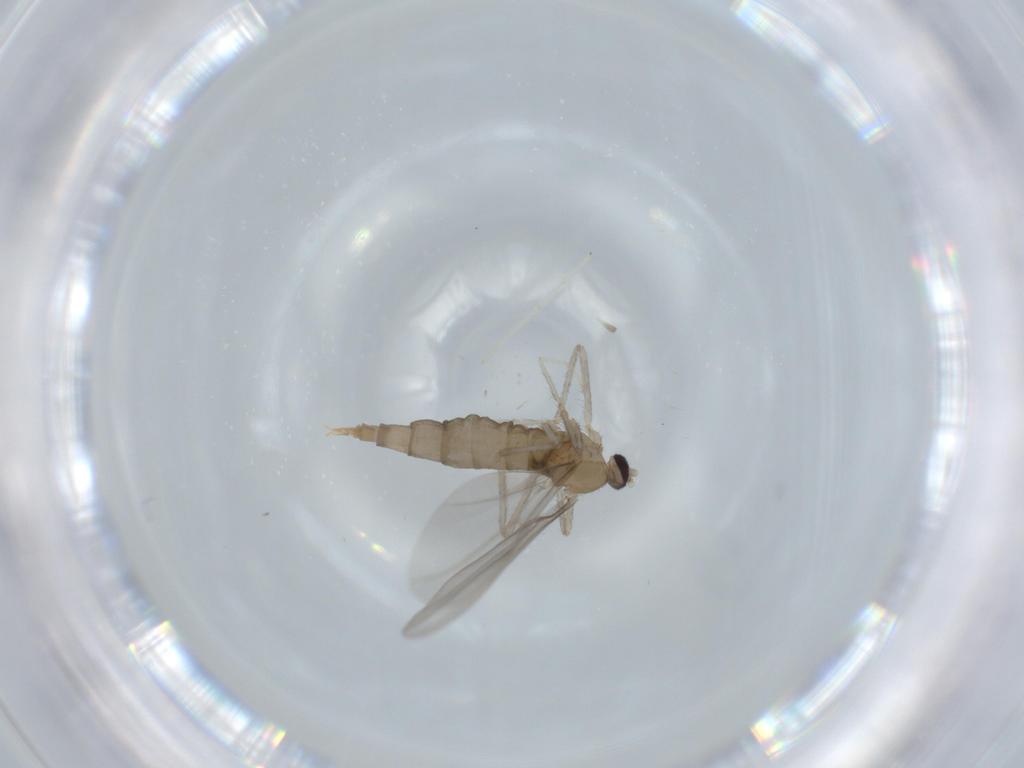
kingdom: Animalia
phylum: Arthropoda
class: Insecta
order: Diptera
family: Cecidomyiidae
